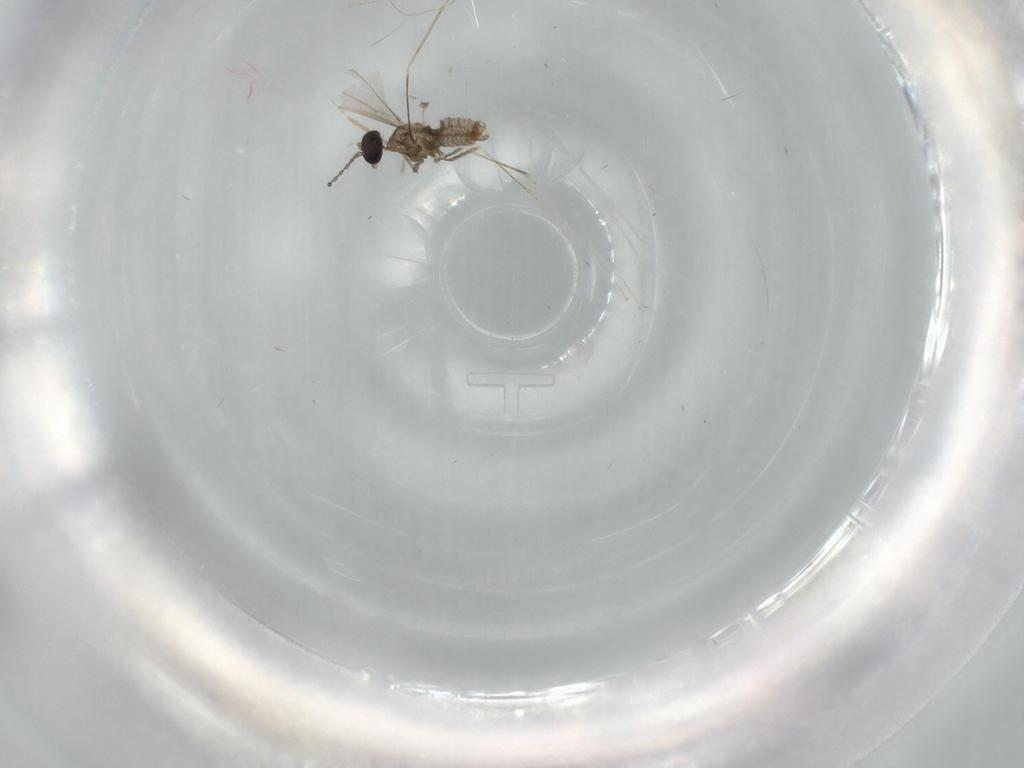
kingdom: Animalia
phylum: Arthropoda
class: Insecta
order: Diptera
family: Cecidomyiidae
